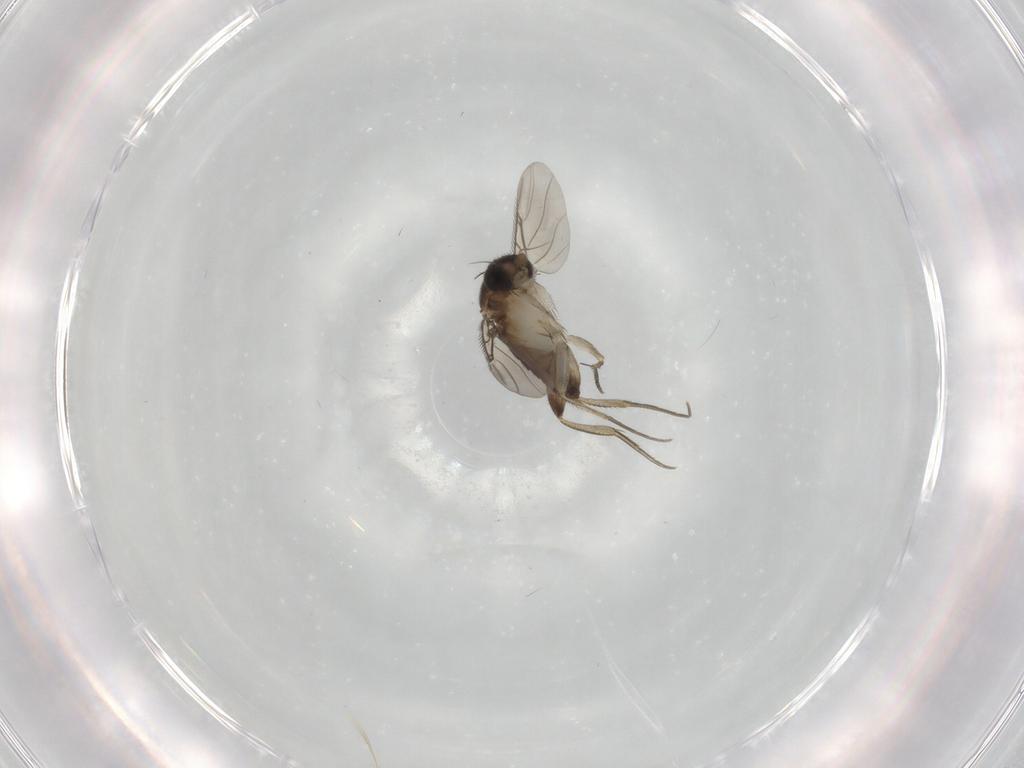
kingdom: Animalia
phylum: Arthropoda
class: Insecta
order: Diptera
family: Phoridae
